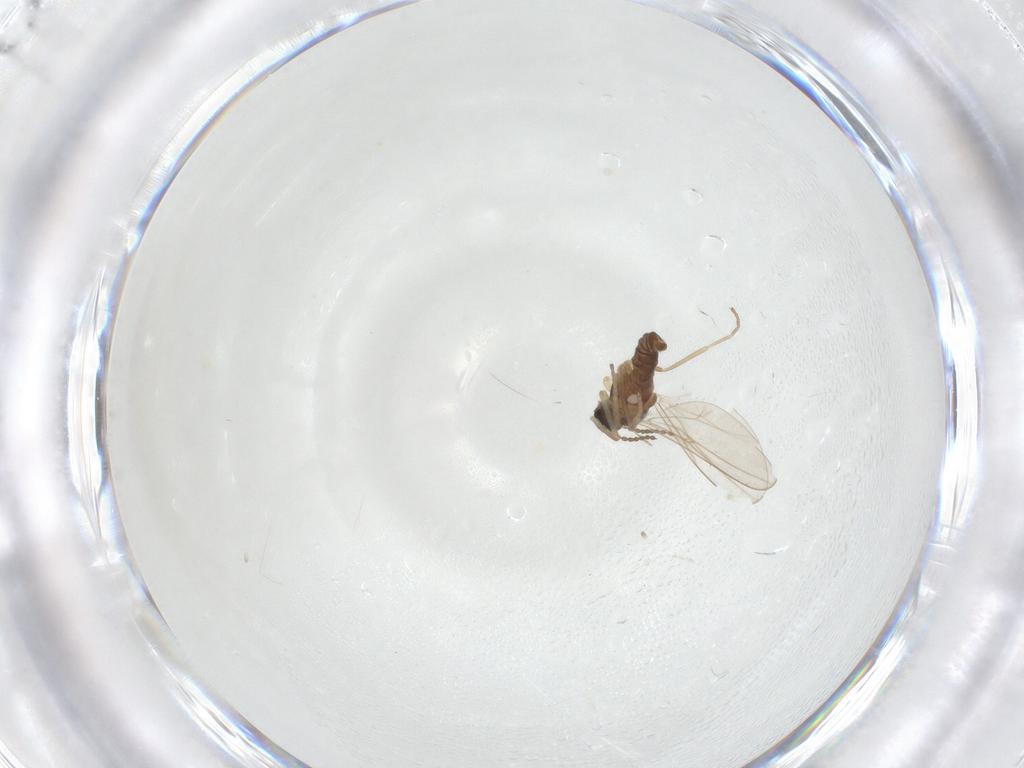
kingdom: Animalia
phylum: Arthropoda
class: Insecta
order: Diptera
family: Cecidomyiidae
